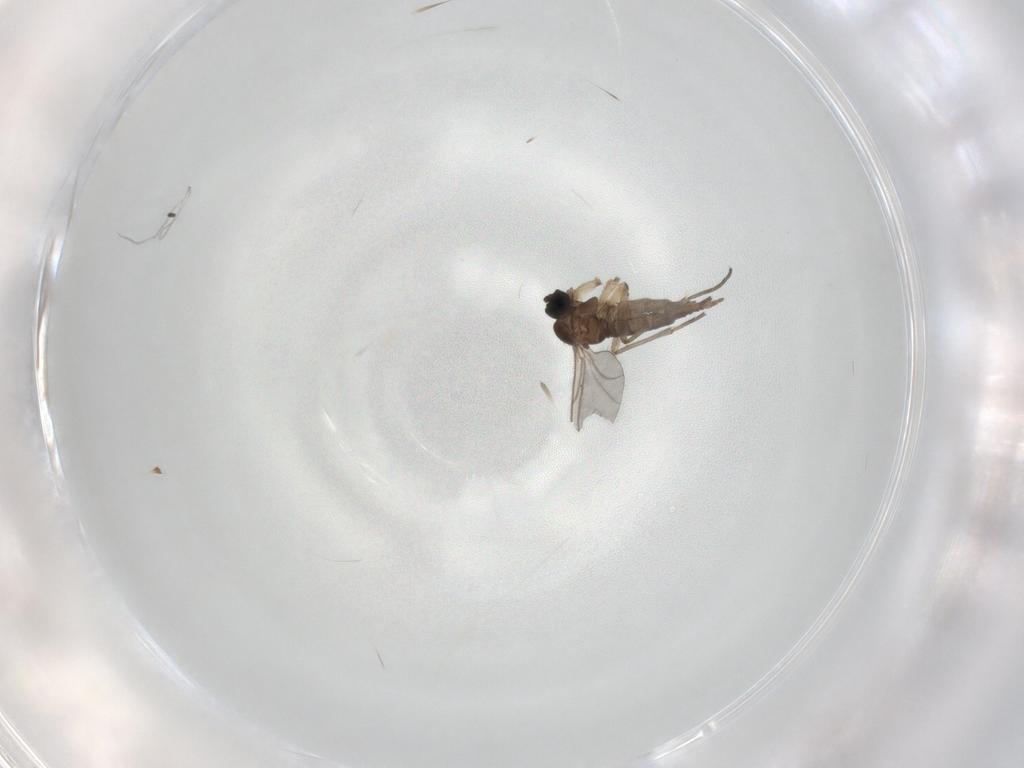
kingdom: Animalia
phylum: Arthropoda
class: Insecta
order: Diptera
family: Sciaridae
